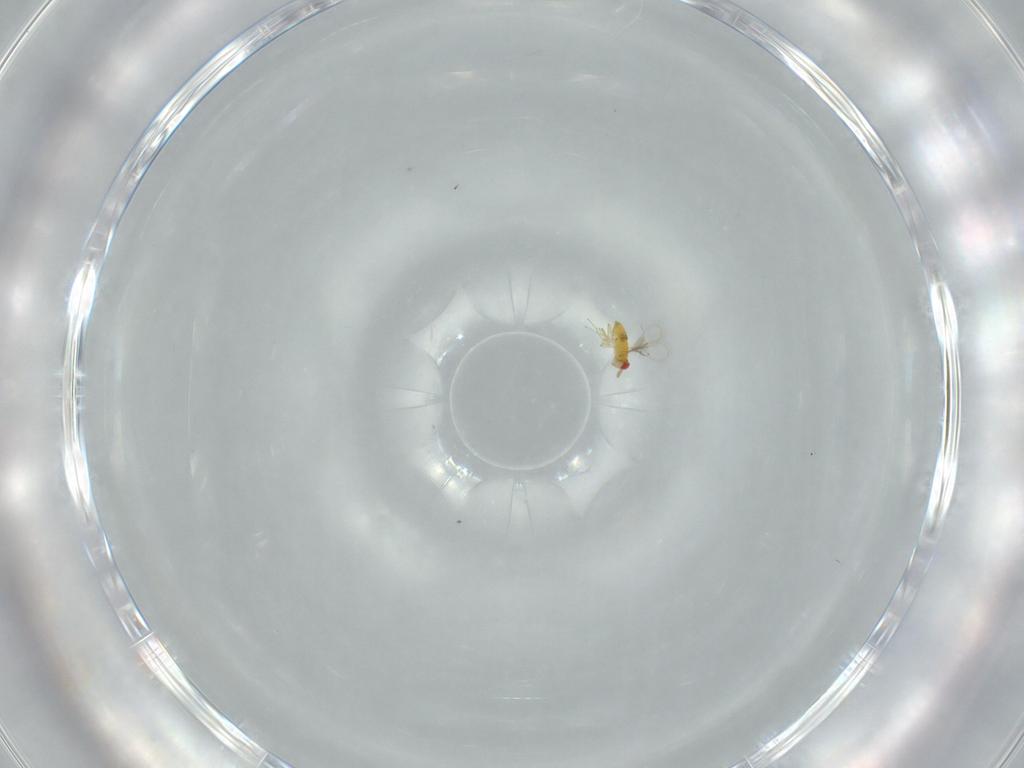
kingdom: Animalia
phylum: Arthropoda
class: Insecta
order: Hymenoptera
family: Trichogrammatidae
